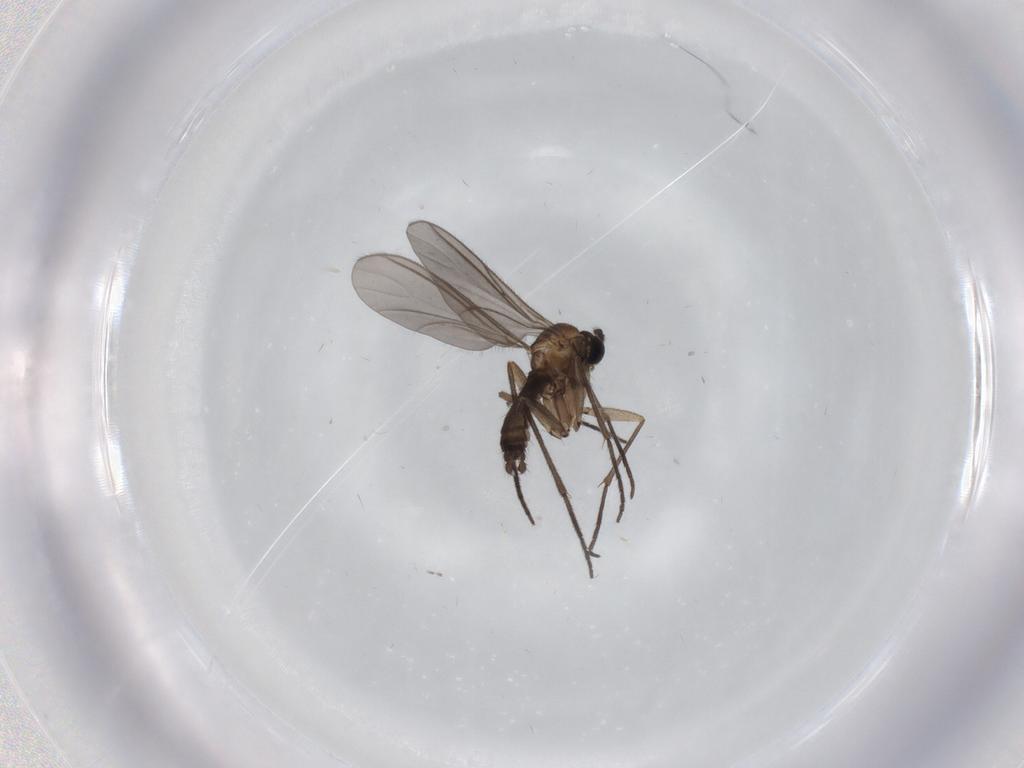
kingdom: Animalia
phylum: Arthropoda
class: Insecta
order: Diptera
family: Sciaridae
